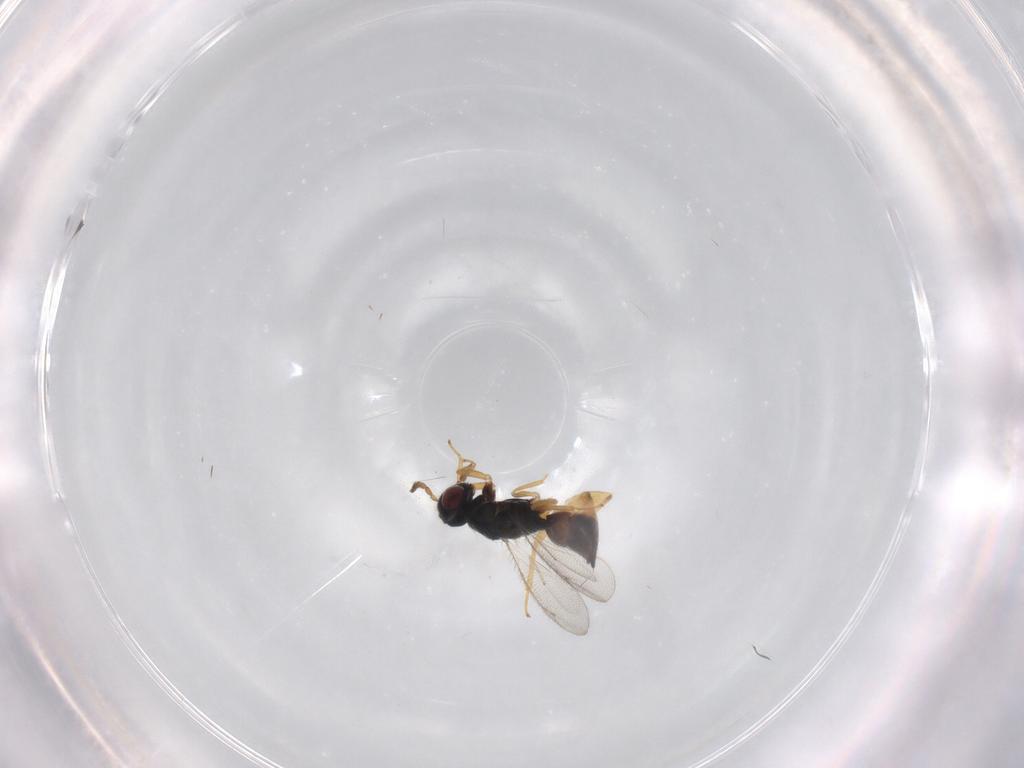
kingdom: Animalia
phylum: Arthropoda
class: Insecta
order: Hymenoptera
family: Eulophidae
